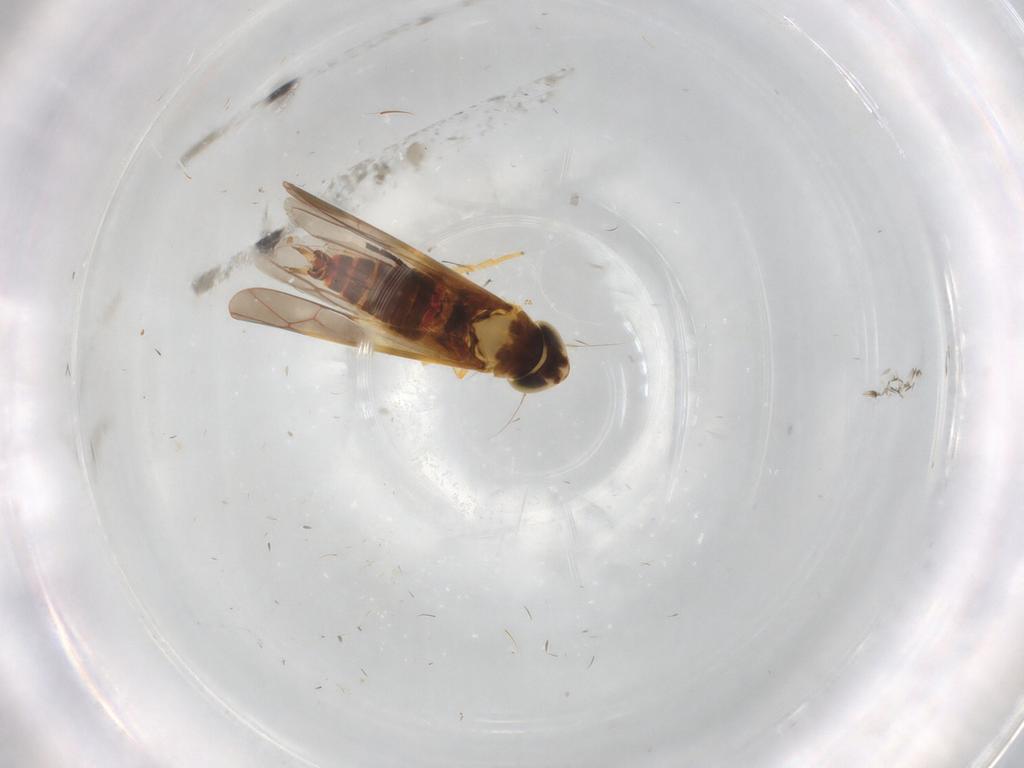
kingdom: Animalia
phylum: Arthropoda
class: Insecta
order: Hemiptera
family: Cicadellidae
